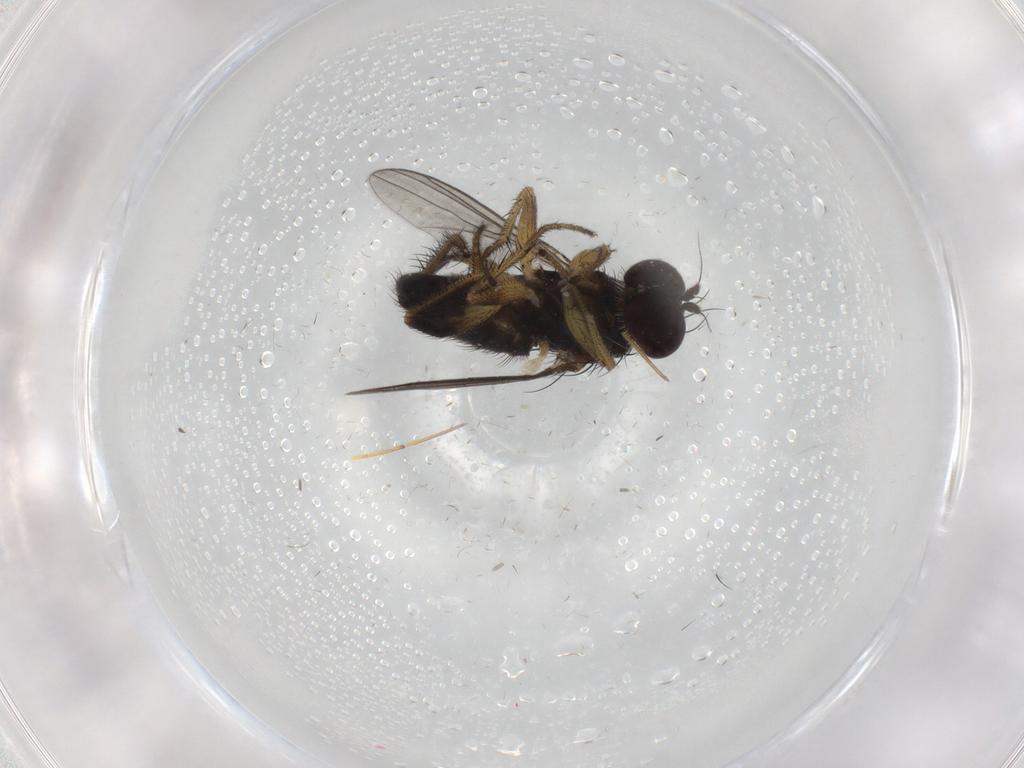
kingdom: Animalia
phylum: Arthropoda
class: Insecta
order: Diptera
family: Dolichopodidae
